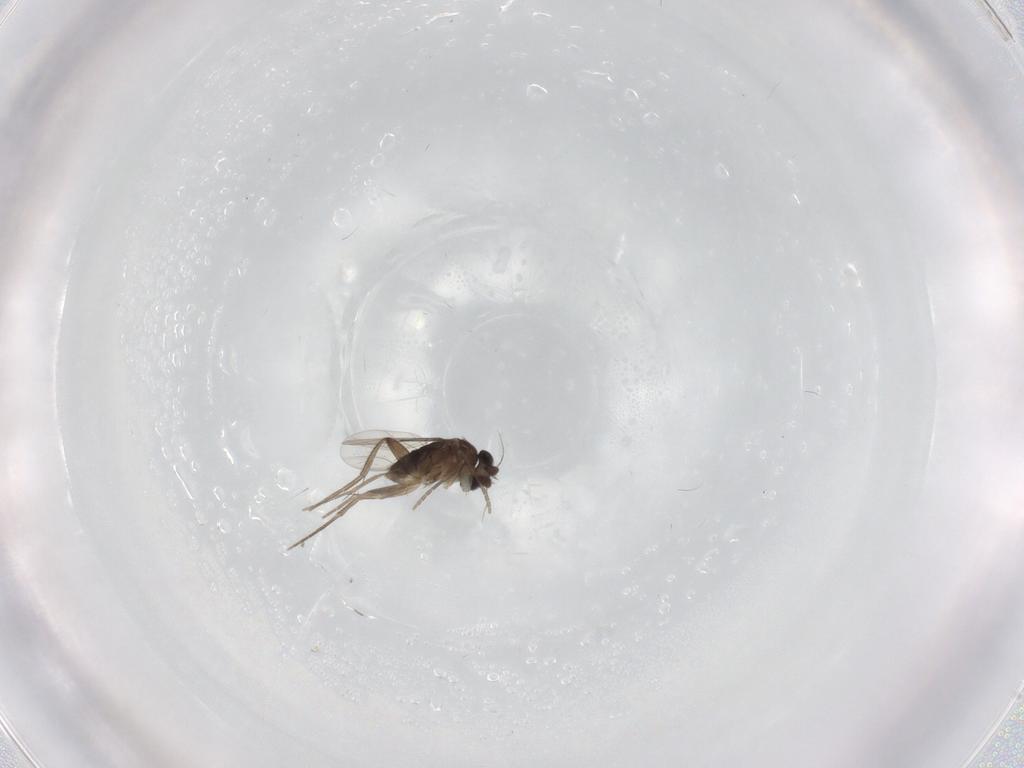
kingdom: Animalia
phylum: Arthropoda
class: Insecta
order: Diptera
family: Phoridae
